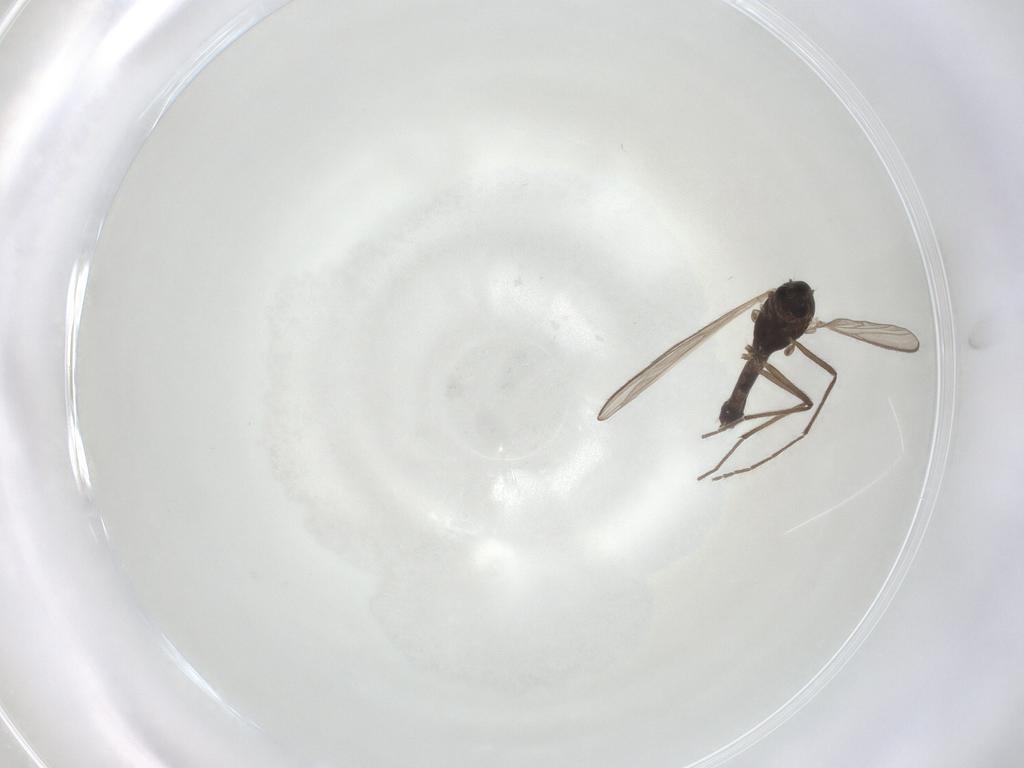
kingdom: Animalia
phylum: Arthropoda
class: Insecta
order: Diptera
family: Chironomidae
